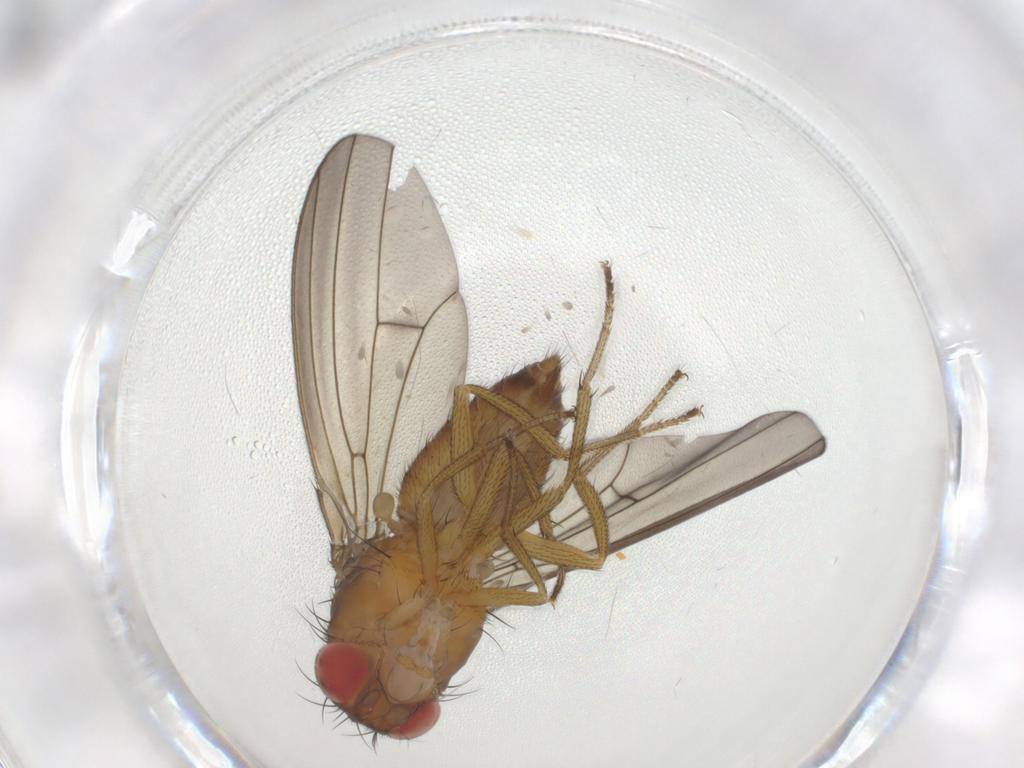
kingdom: Animalia
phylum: Arthropoda
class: Insecta
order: Diptera
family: Drosophilidae
